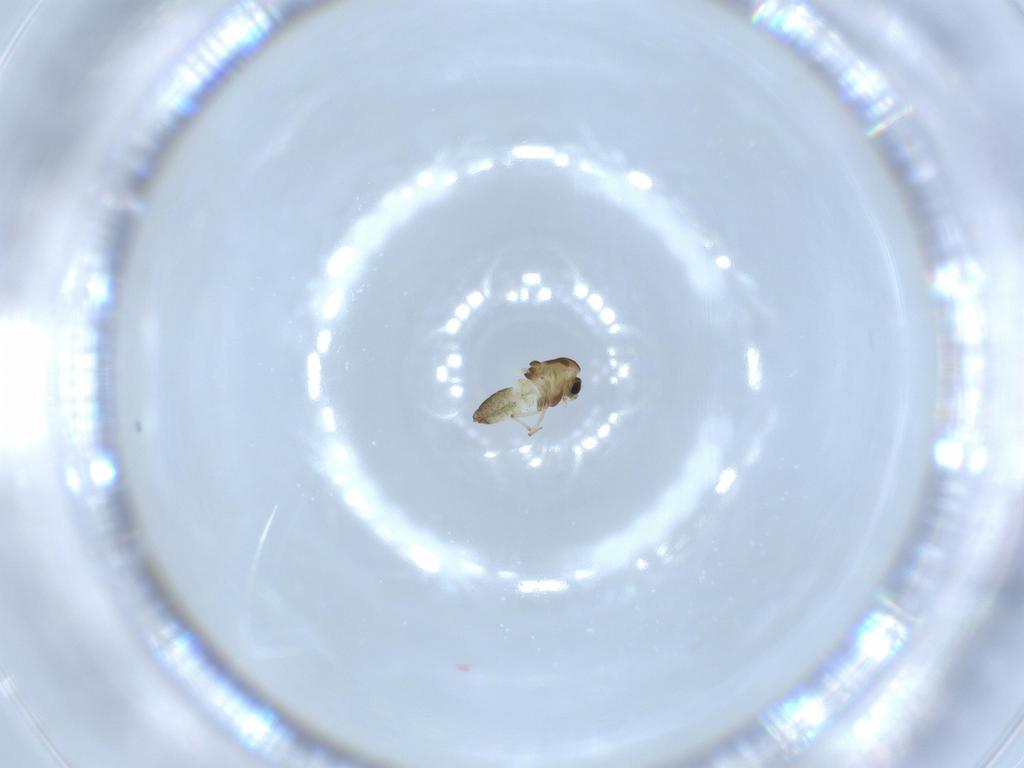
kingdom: Animalia
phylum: Arthropoda
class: Insecta
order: Diptera
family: Chironomidae
